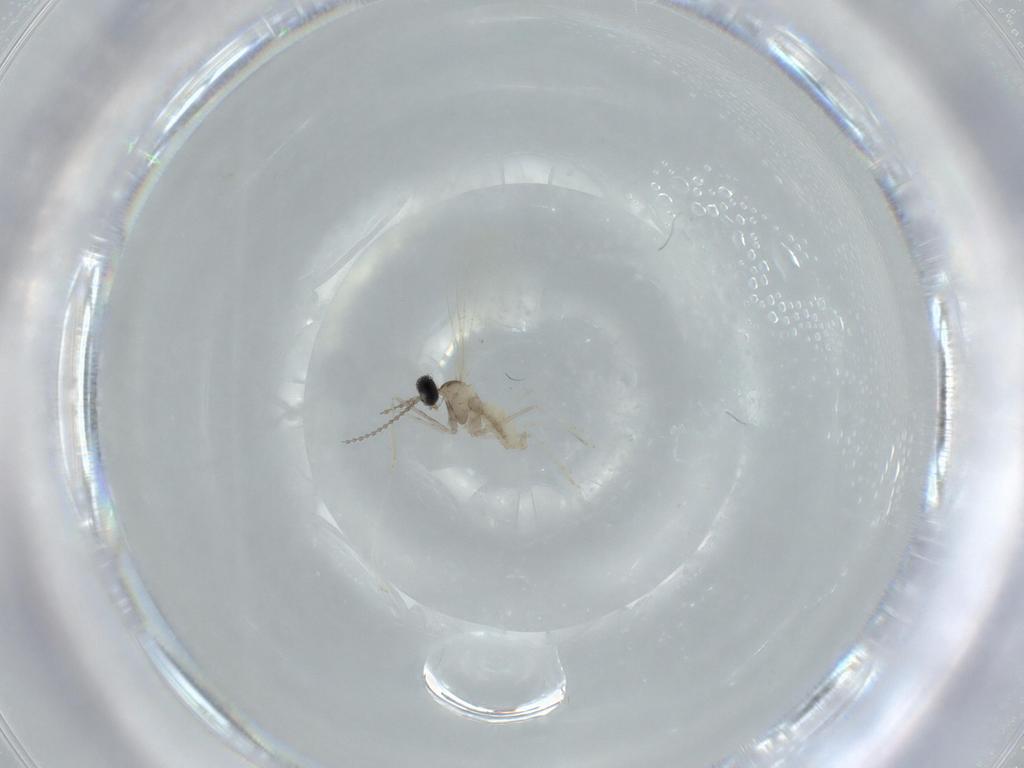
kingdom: Animalia
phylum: Arthropoda
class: Insecta
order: Diptera
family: Cecidomyiidae
